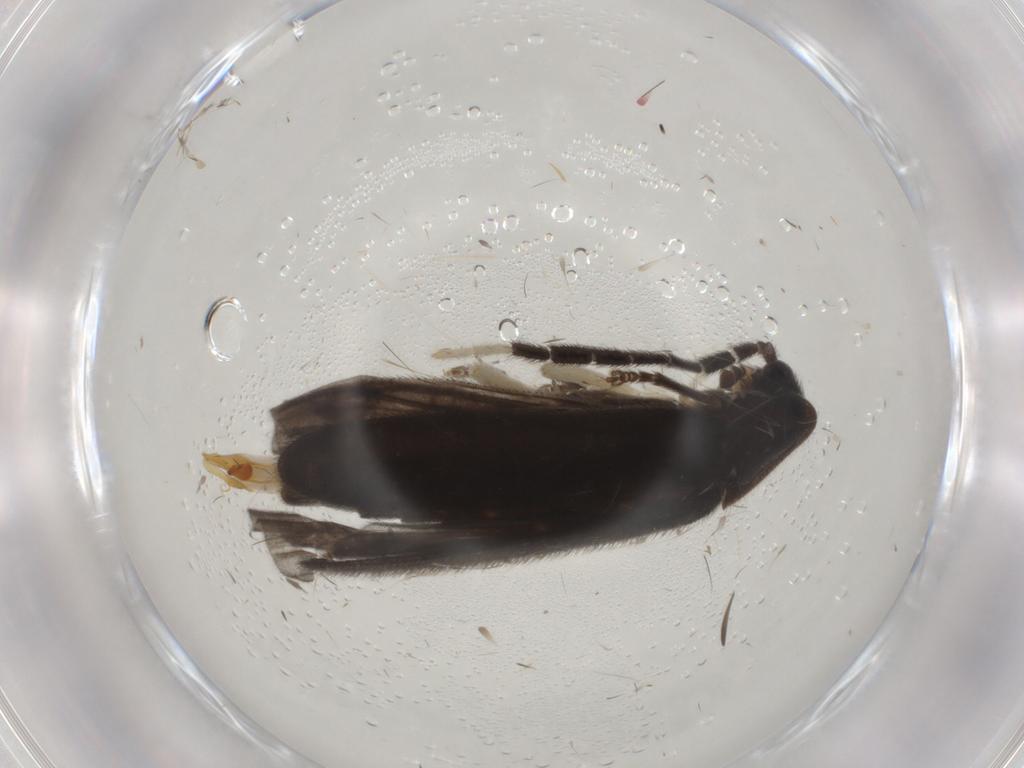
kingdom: Animalia
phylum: Arthropoda
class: Insecta
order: Coleoptera
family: Lampyridae
